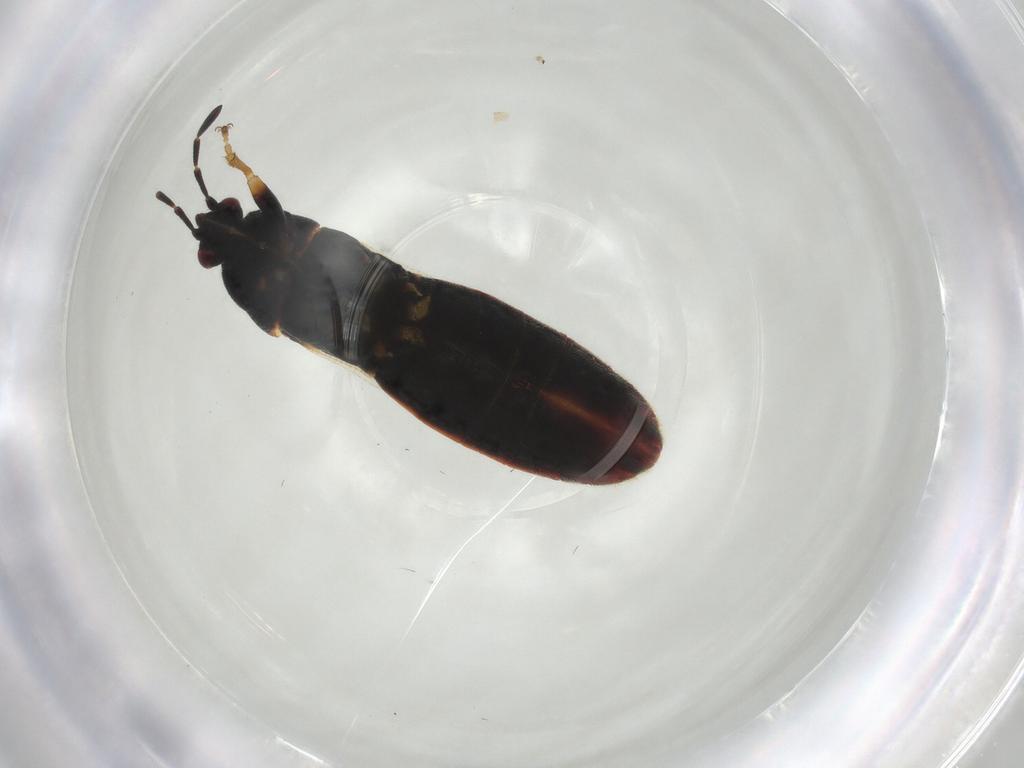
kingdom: Animalia
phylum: Arthropoda
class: Insecta
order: Hemiptera
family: Blissidae
